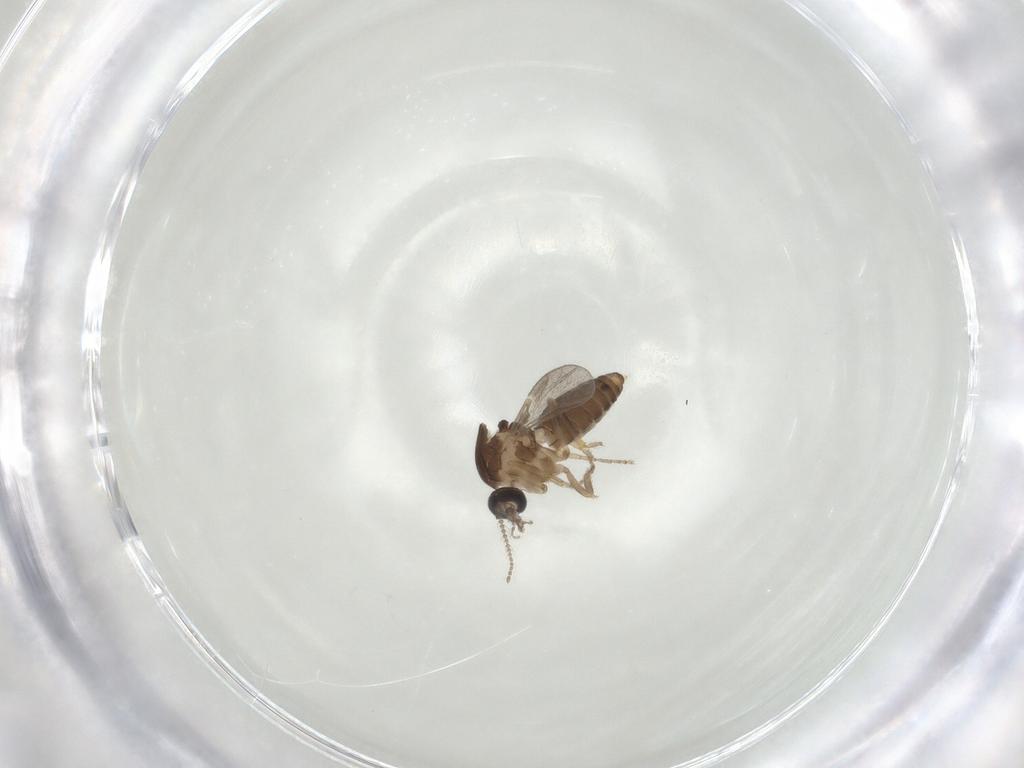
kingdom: Animalia
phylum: Arthropoda
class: Insecta
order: Diptera
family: Ceratopogonidae
